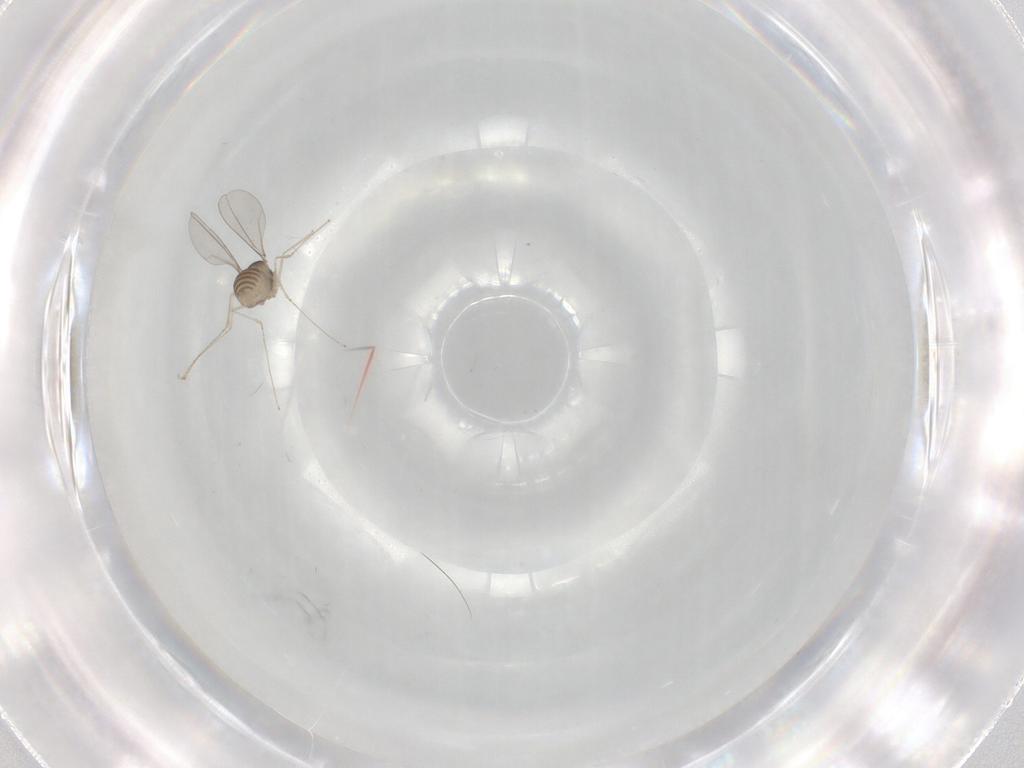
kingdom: Animalia
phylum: Arthropoda
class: Insecta
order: Diptera
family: Cecidomyiidae
